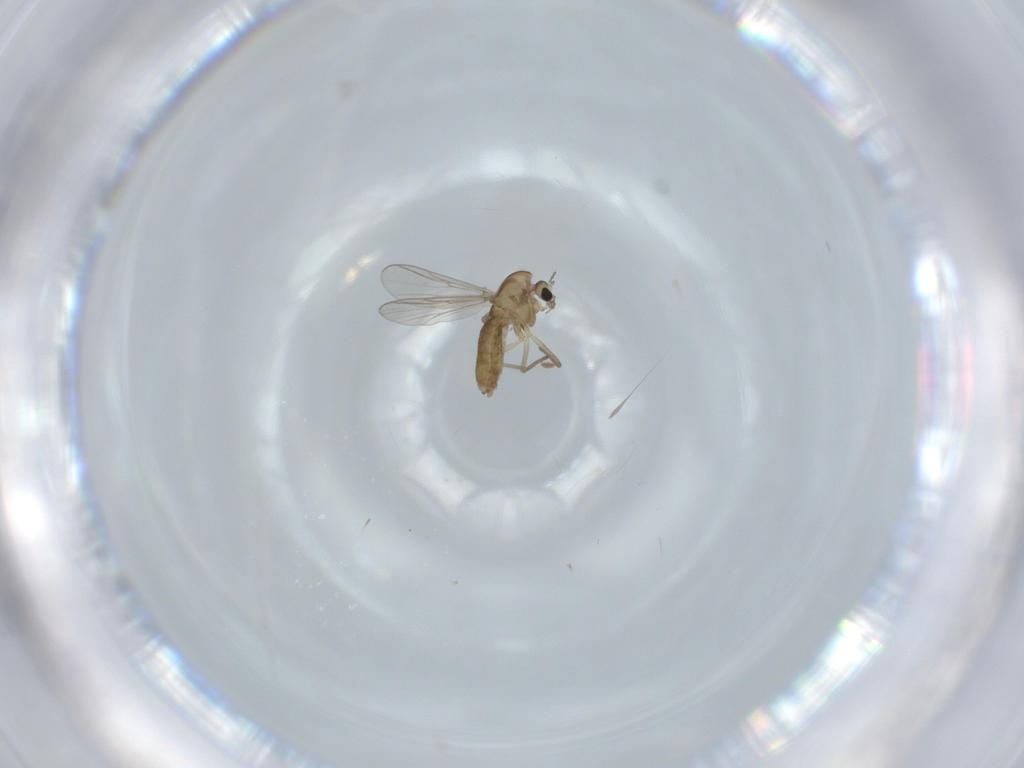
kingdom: Animalia
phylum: Arthropoda
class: Insecta
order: Diptera
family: Chironomidae
